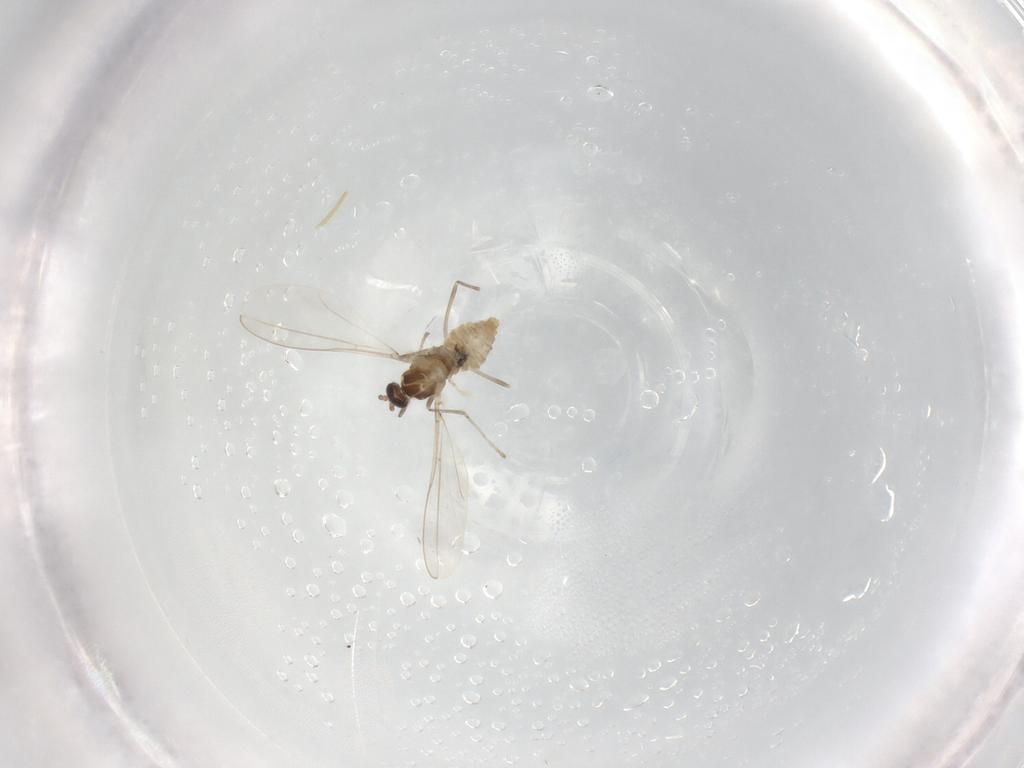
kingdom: Animalia
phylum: Arthropoda
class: Insecta
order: Diptera
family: Cecidomyiidae
